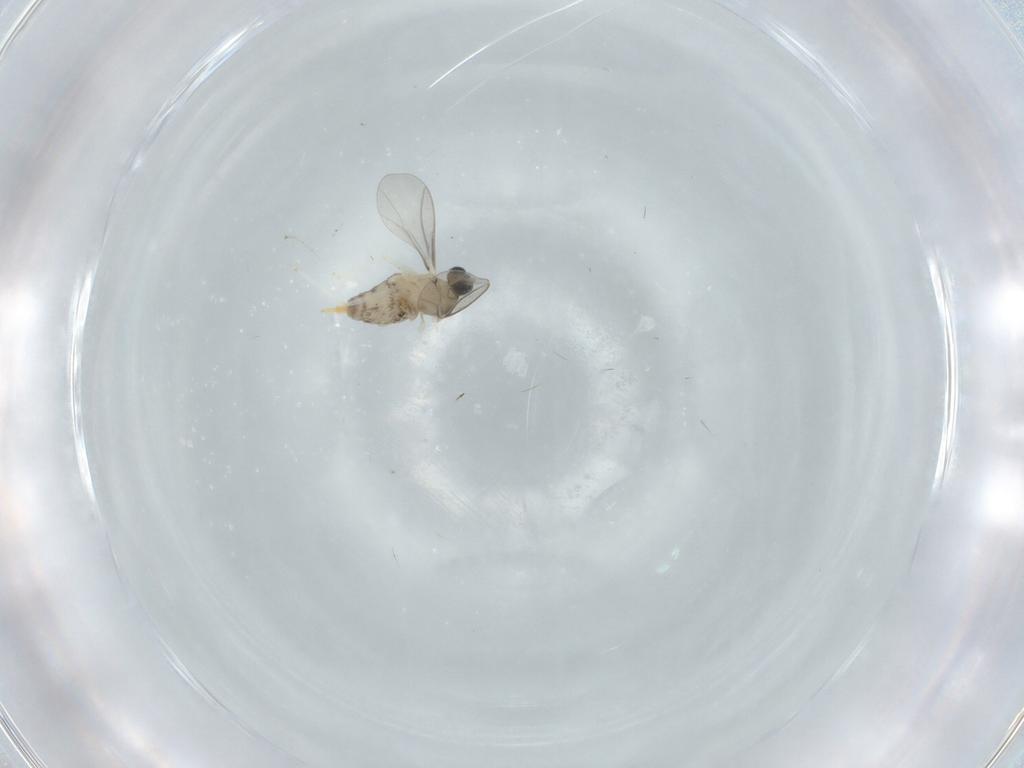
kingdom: Animalia
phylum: Arthropoda
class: Insecta
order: Diptera
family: Cecidomyiidae
